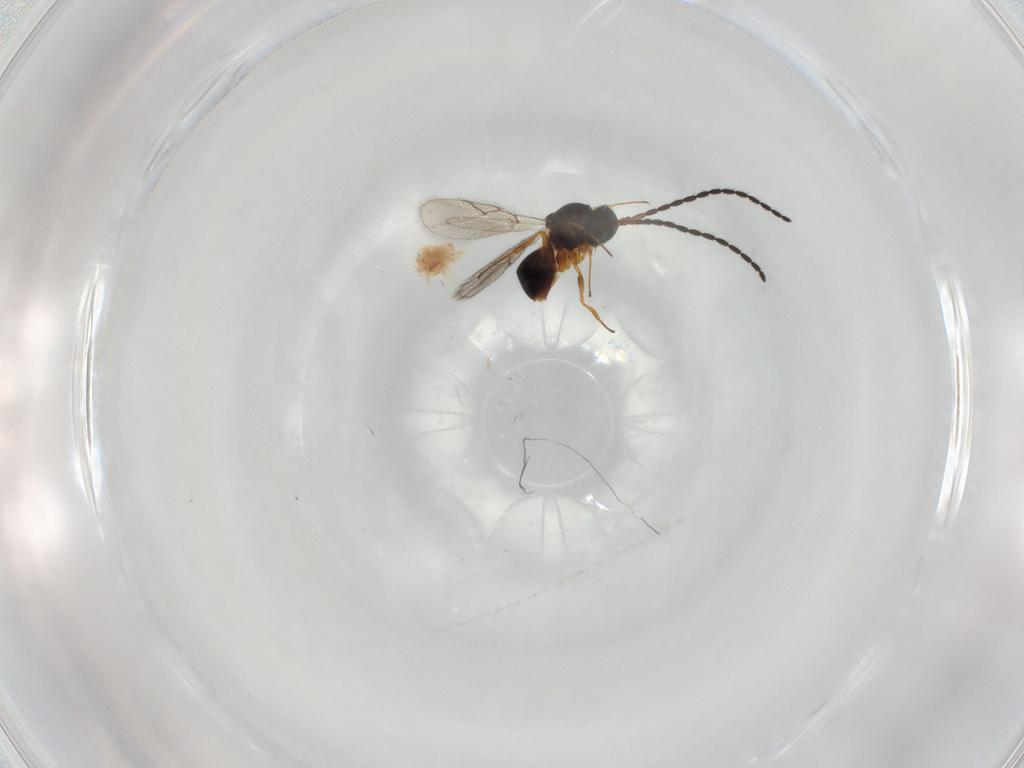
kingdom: Animalia
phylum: Arthropoda
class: Insecta
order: Hymenoptera
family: Figitidae
